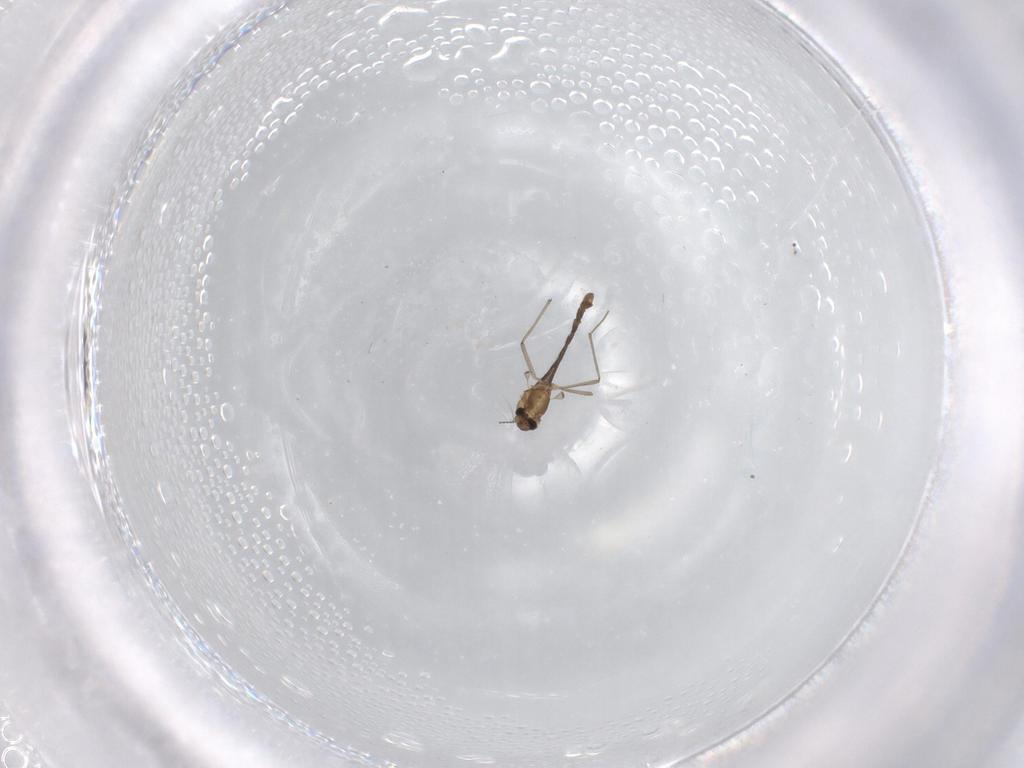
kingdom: Animalia
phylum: Arthropoda
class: Insecta
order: Diptera
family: Chironomidae
